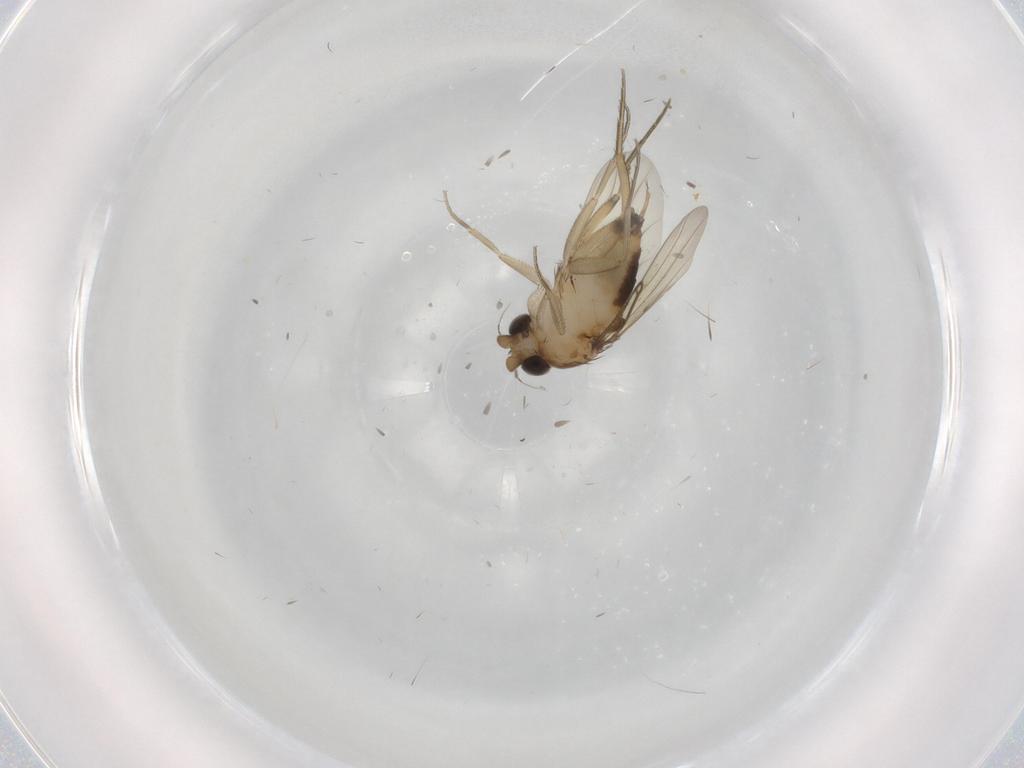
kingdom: Animalia
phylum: Arthropoda
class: Insecta
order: Diptera
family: Phoridae
